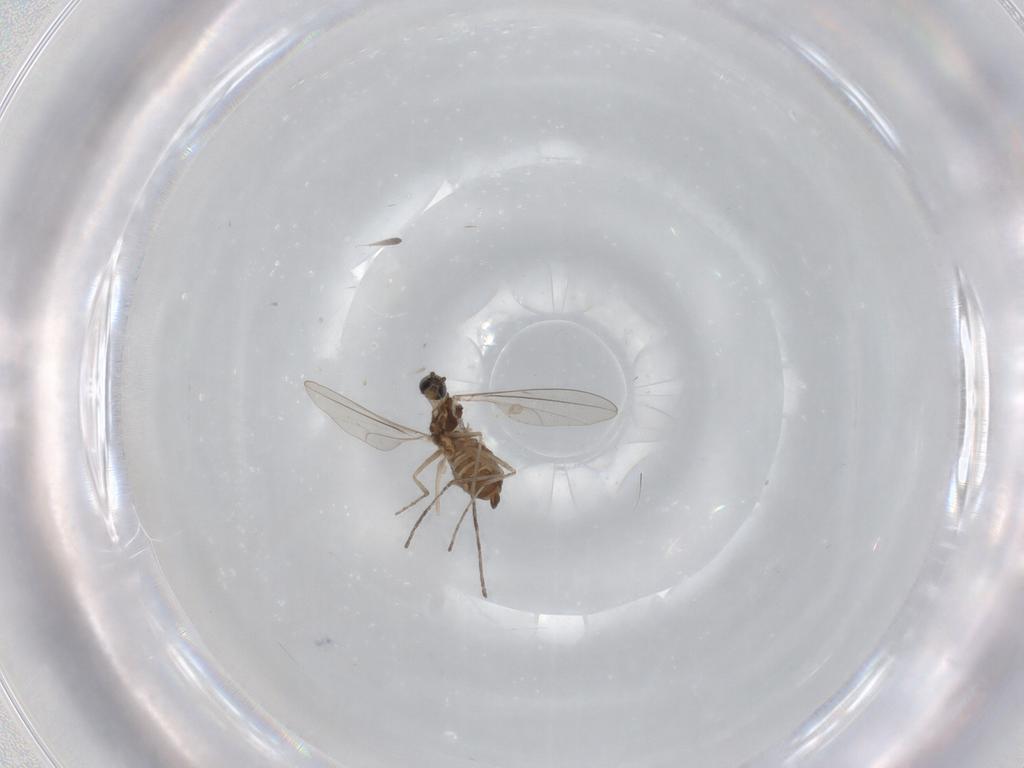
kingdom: Animalia
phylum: Arthropoda
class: Insecta
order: Diptera
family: Cecidomyiidae
